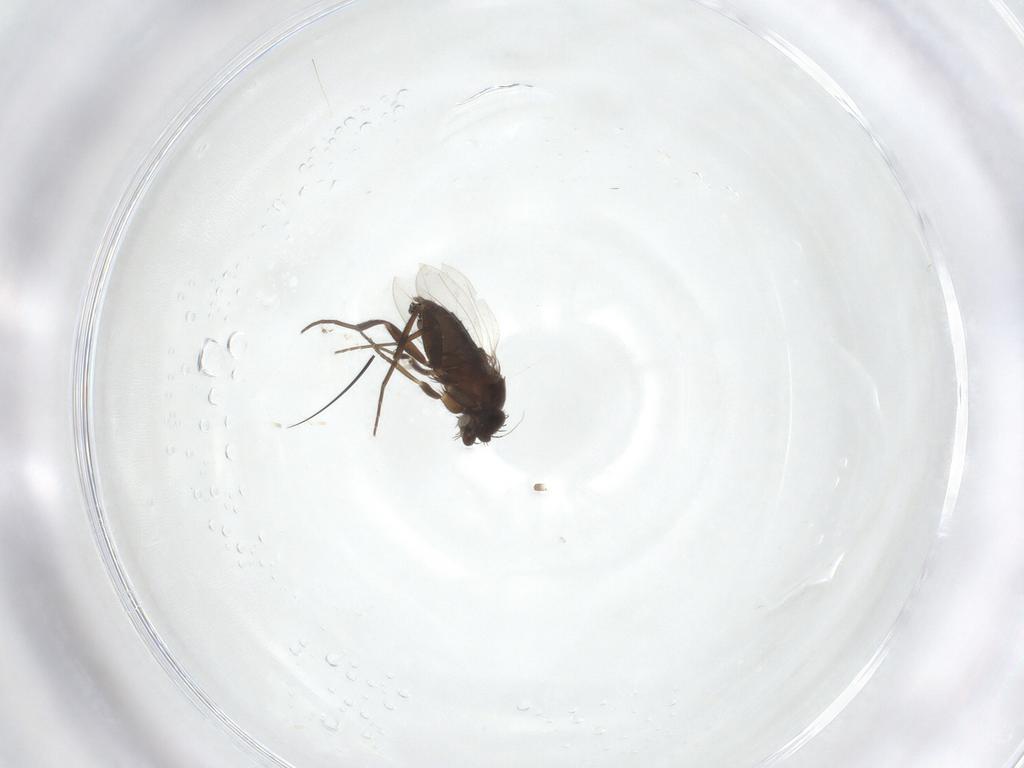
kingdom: Animalia
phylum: Arthropoda
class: Insecta
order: Diptera
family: Phoridae
